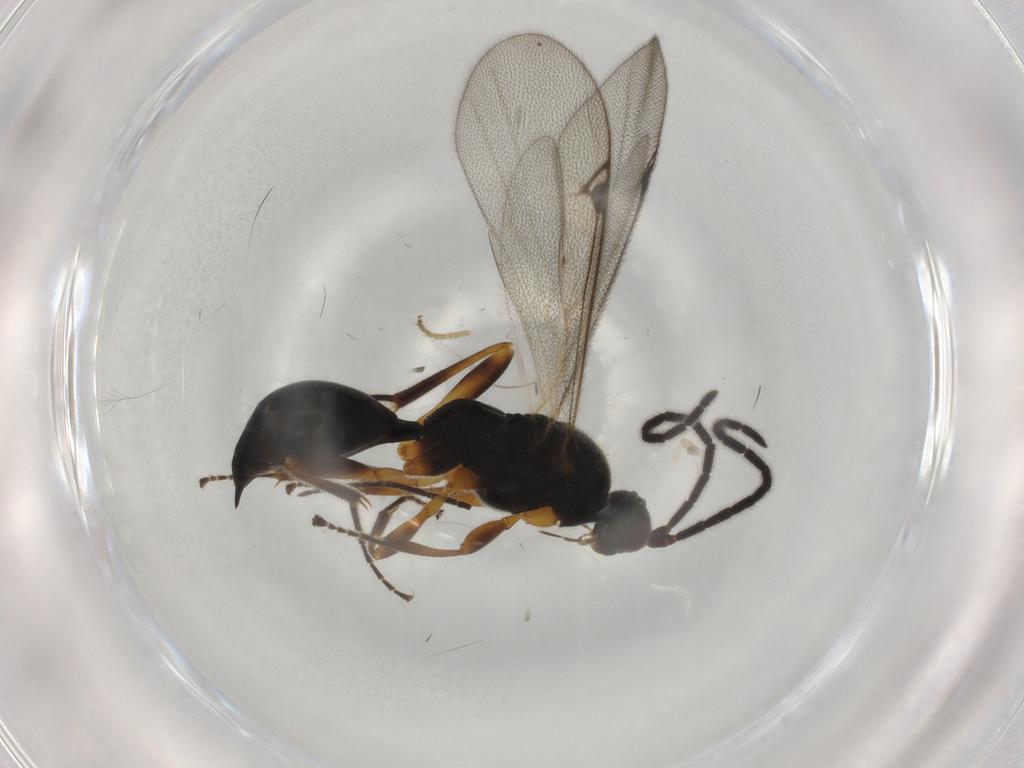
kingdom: Animalia
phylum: Arthropoda
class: Insecta
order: Hymenoptera
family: Proctotrupidae
